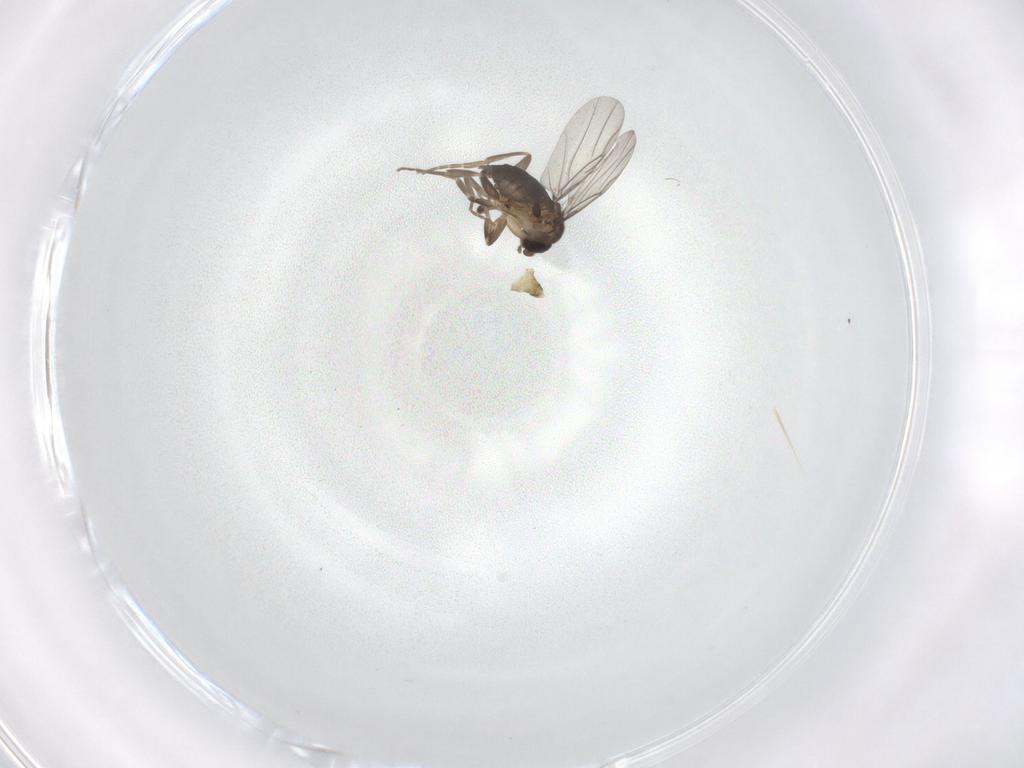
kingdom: Animalia
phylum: Arthropoda
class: Insecta
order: Diptera
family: Chironomidae
